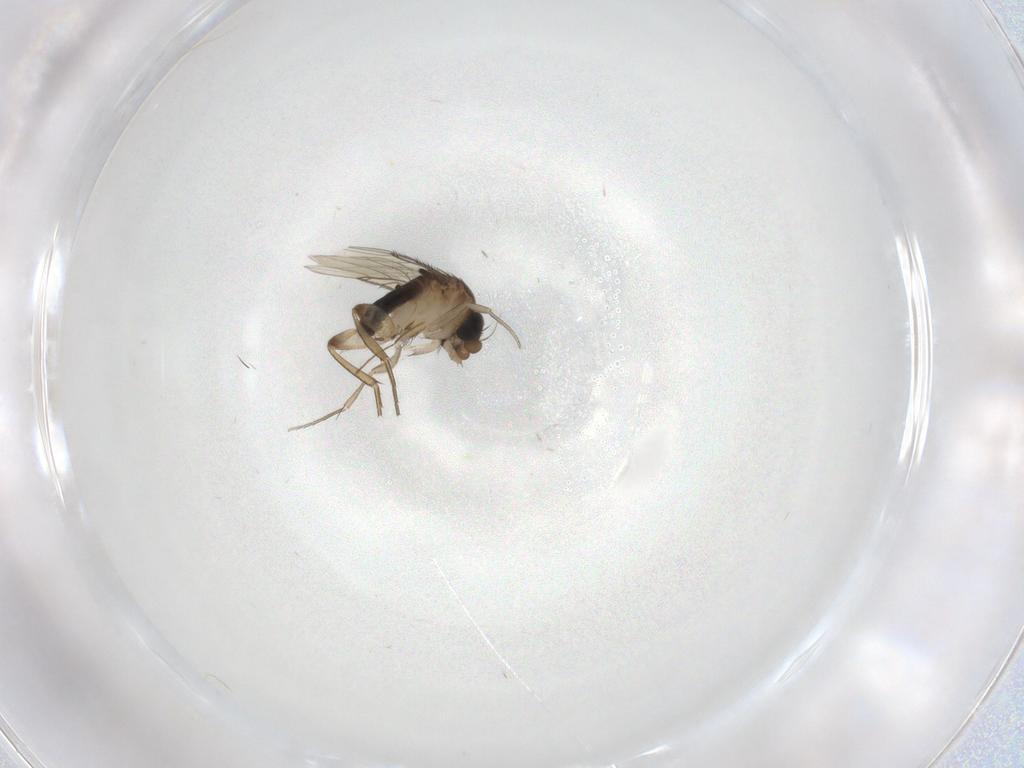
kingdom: Animalia
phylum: Arthropoda
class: Insecta
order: Diptera
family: Phoridae
